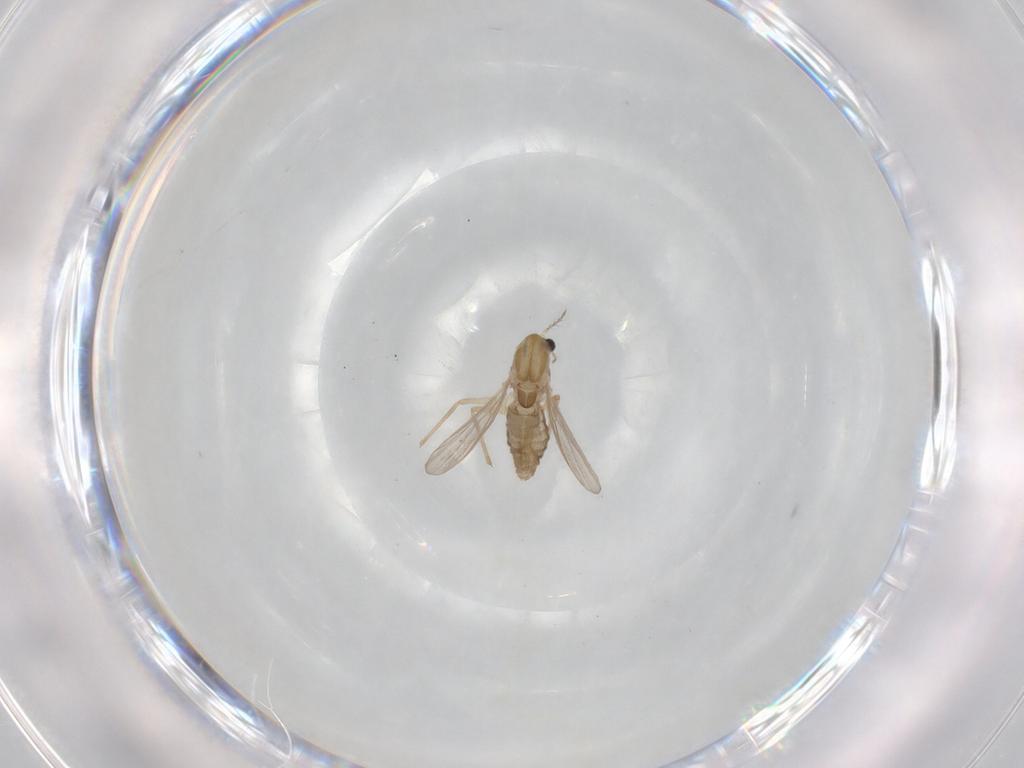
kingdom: Animalia
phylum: Arthropoda
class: Insecta
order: Diptera
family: Chironomidae
